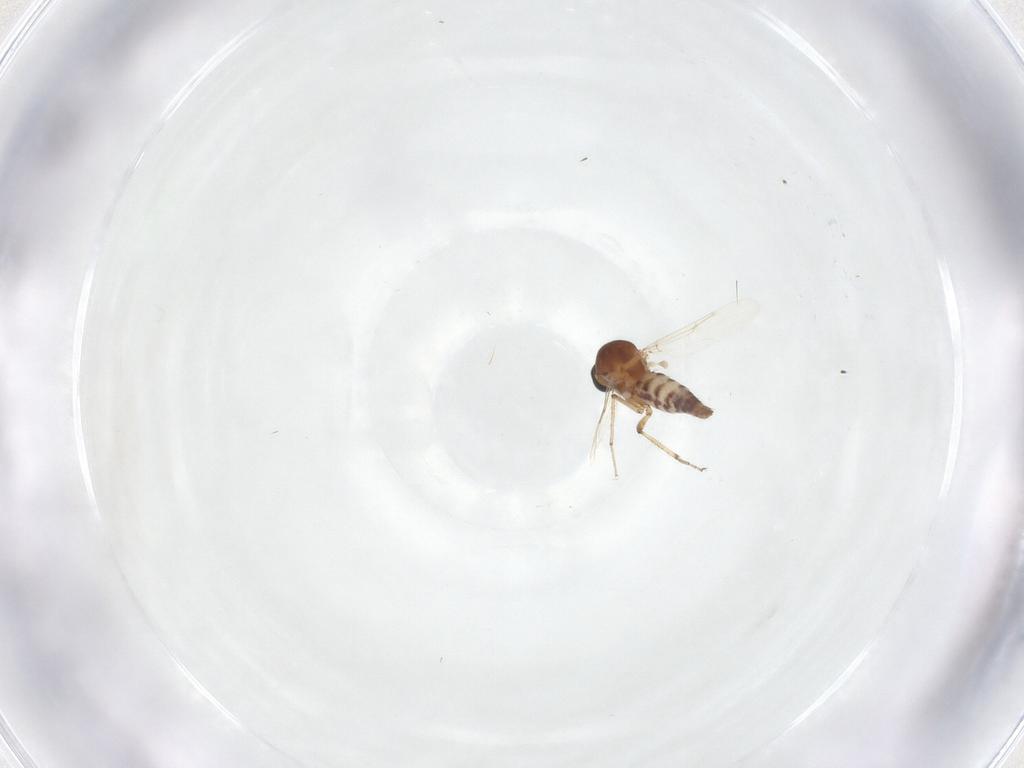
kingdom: Animalia
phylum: Arthropoda
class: Insecta
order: Diptera
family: Cecidomyiidae
